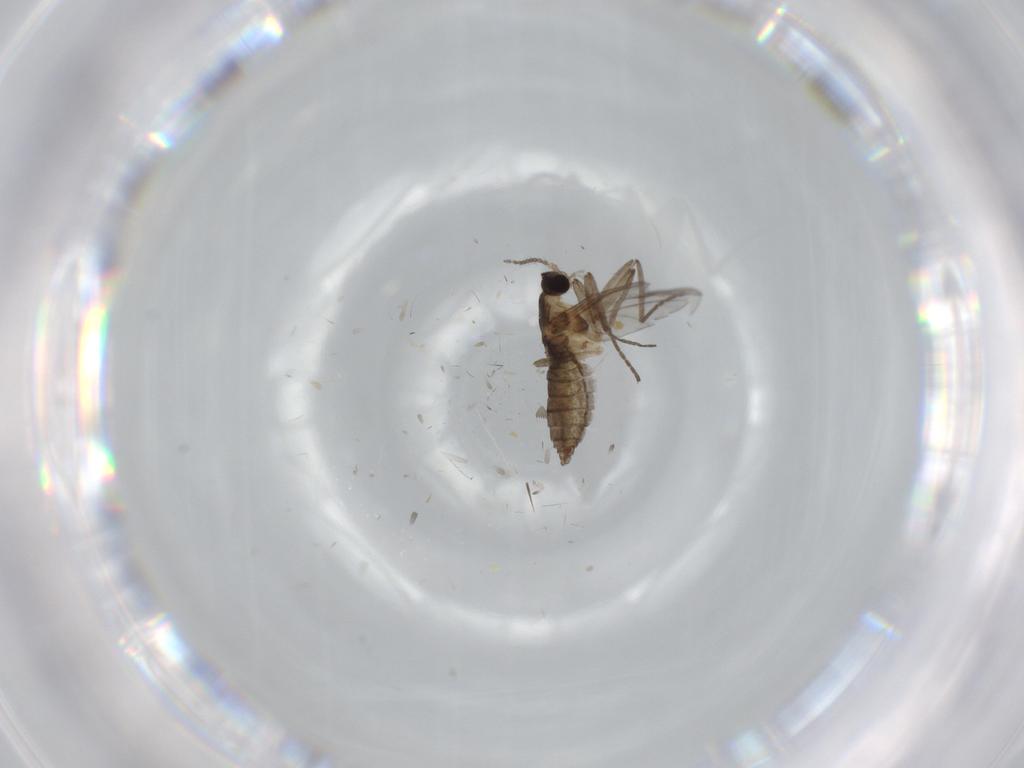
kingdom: Animalia
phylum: Arthropoda
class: Insecta
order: Diptera
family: Cecidomyiidae
